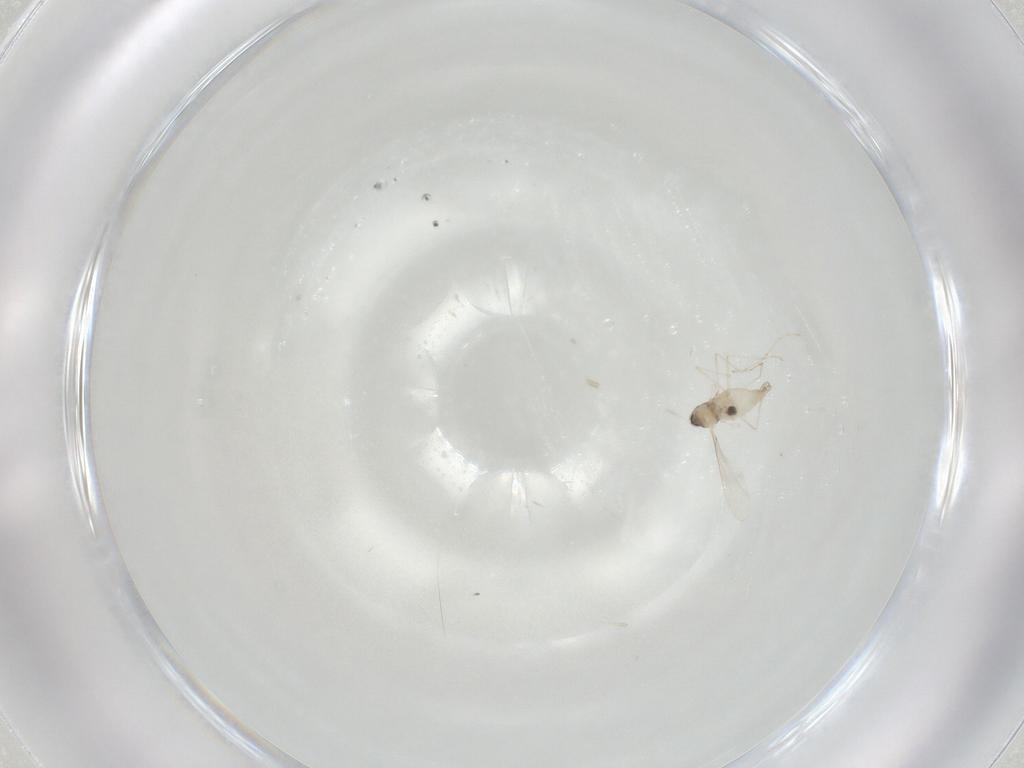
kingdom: Animalia
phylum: Arthropoda
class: Insecta
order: Diptera
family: Cecidomyiidae
